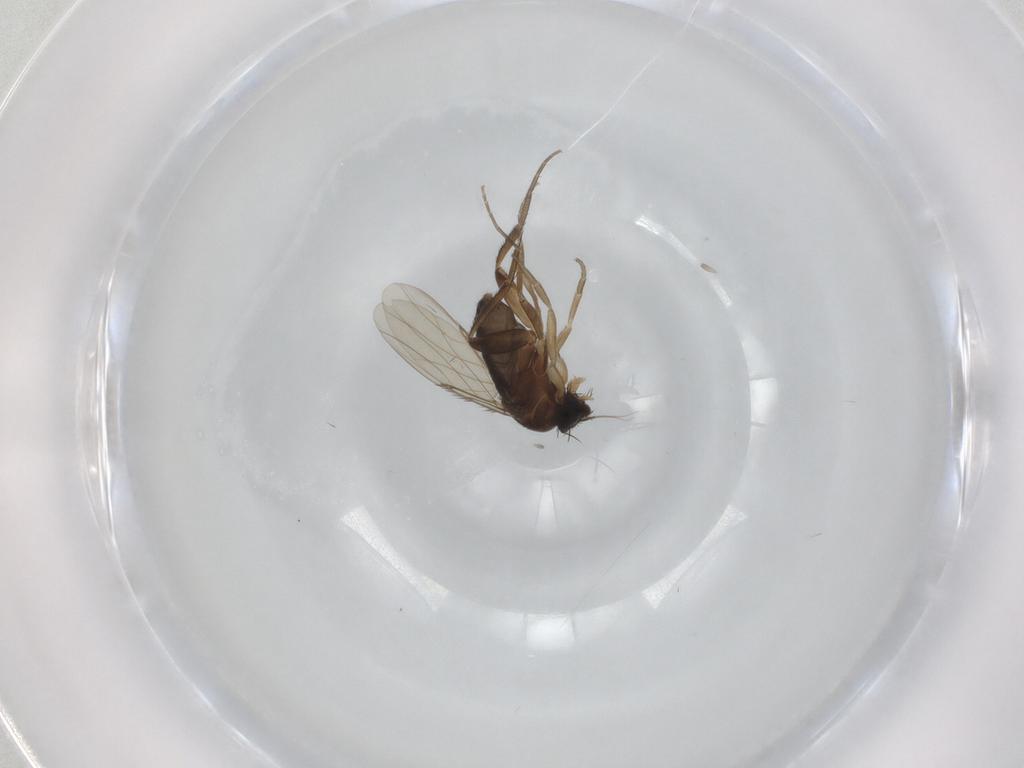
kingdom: Animalia
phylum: Arthropoda
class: Insecta
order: Diptera
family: Phoridae
